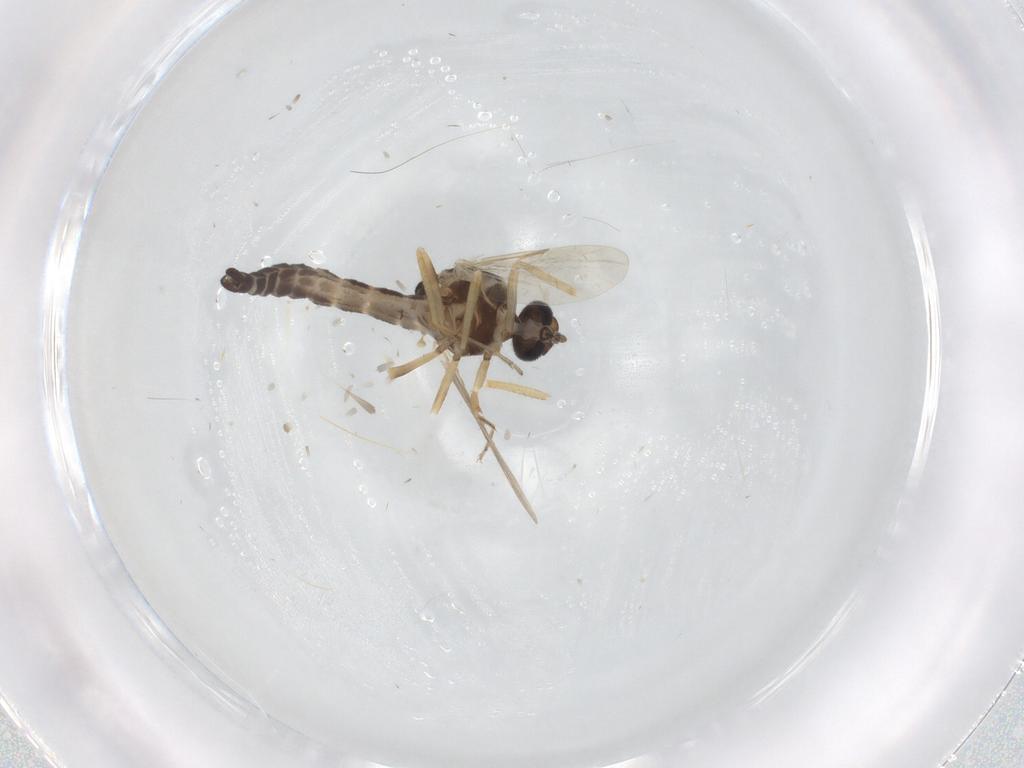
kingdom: Animalia
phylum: Arthropoda
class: Insecta
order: Diptera
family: Ceratopogonidae
